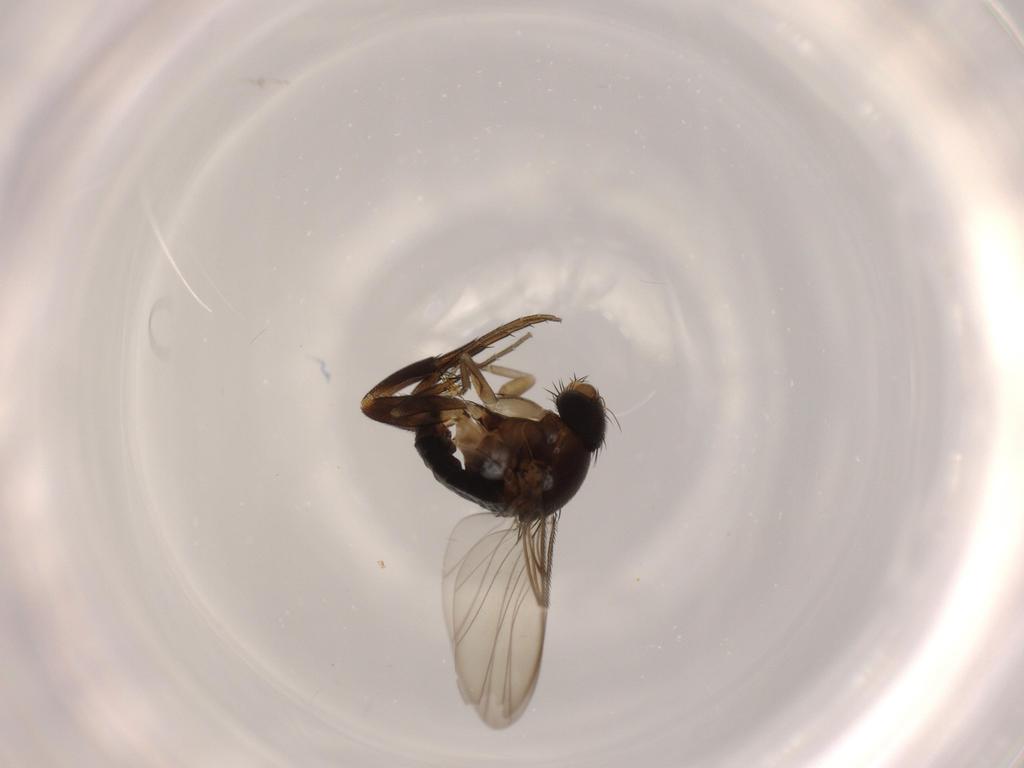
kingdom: Animalia
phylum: Arthropoda
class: Insecta
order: Diptera
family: Phoridae
